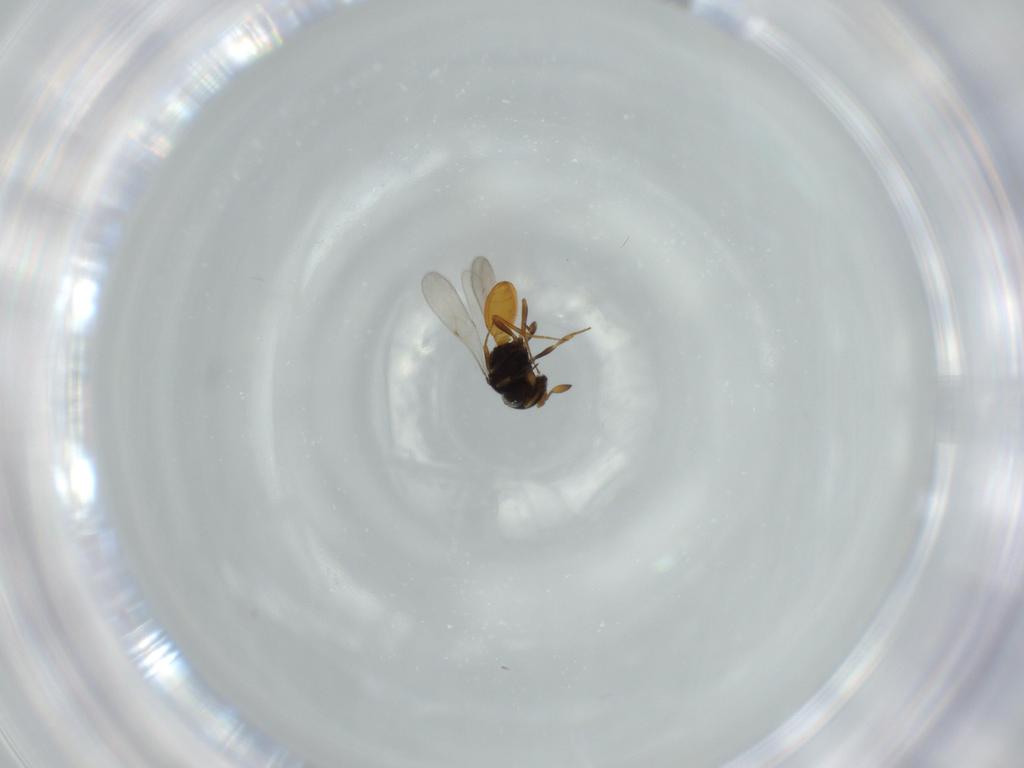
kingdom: Animalia
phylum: Arthropoda
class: Insecta
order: Hymenoptera
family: Scelionidae
